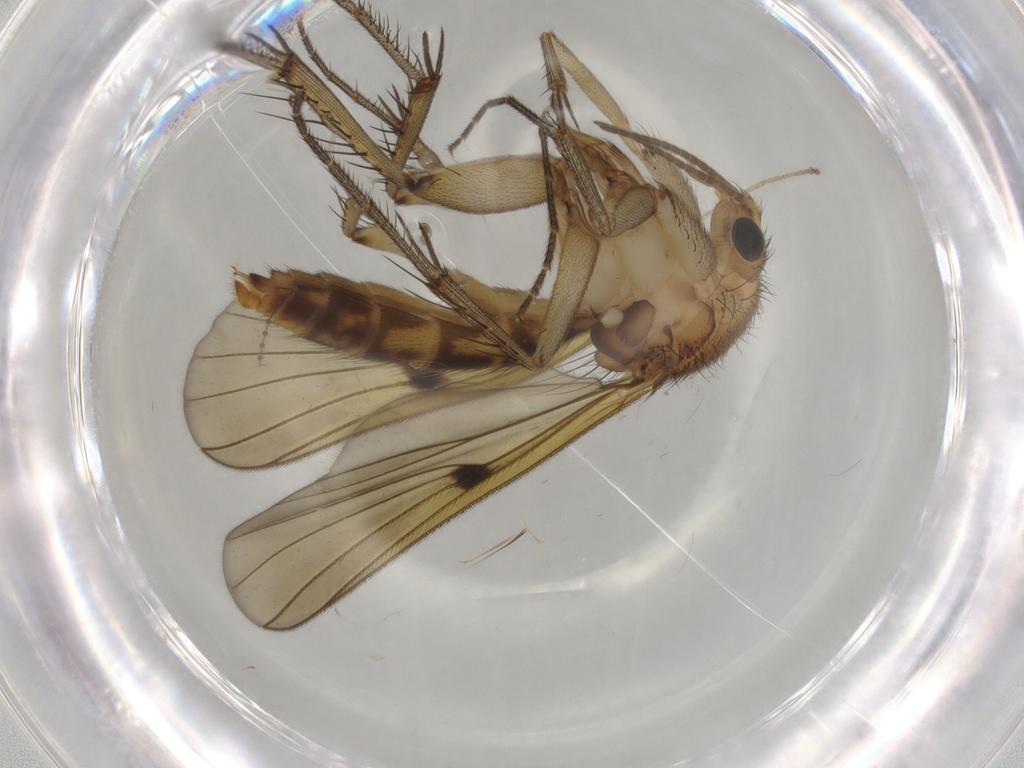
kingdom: Animalia
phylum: Arthropoda
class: Insecta
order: Diptera
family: Mycetophilidae
